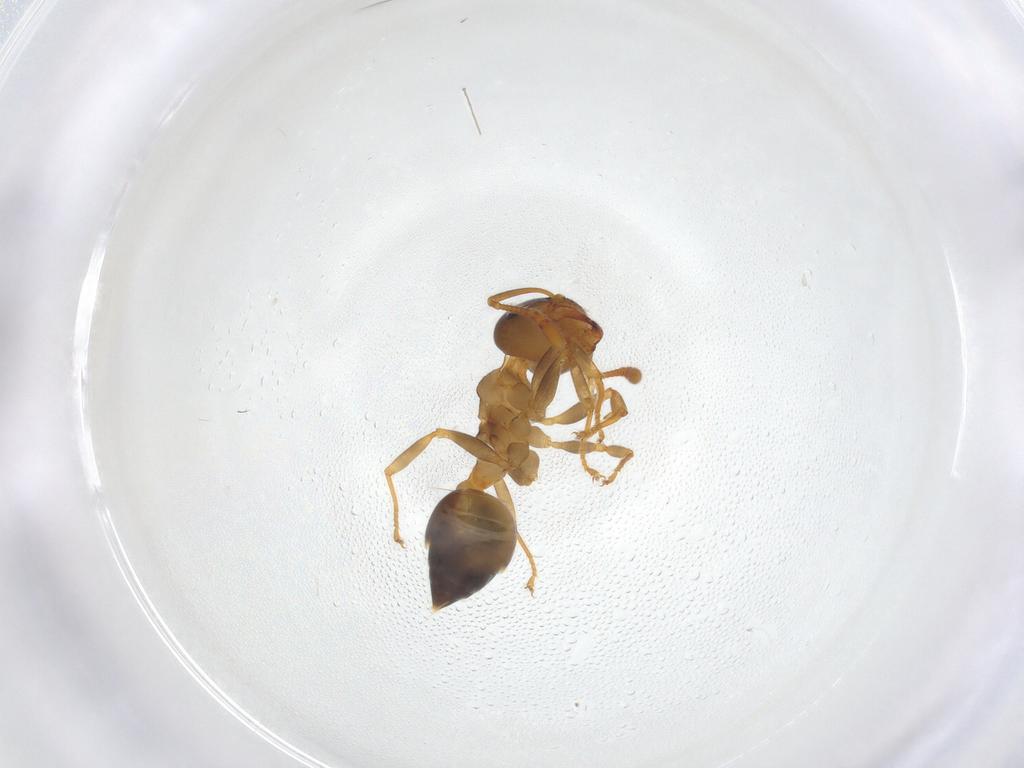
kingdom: Animalia
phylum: Arthropoda
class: Insecta
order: Hymenoptera
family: Formicidae
